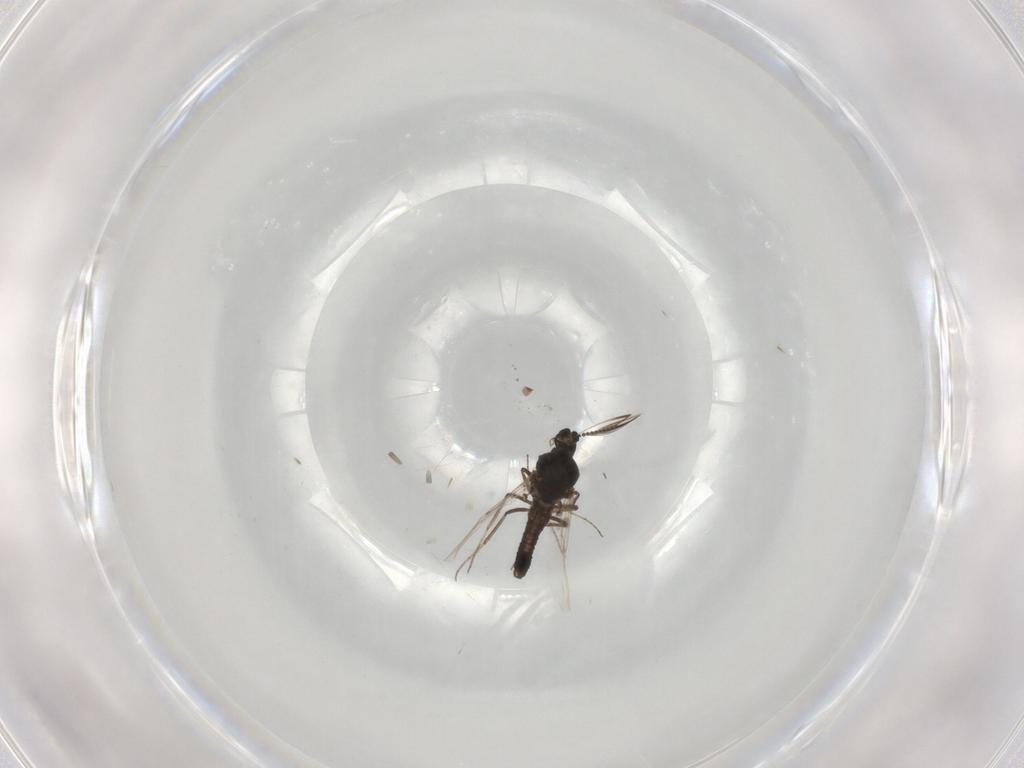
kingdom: Animalia
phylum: Arthropoda
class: Insecta
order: Diptera
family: Ceratopogonidae
